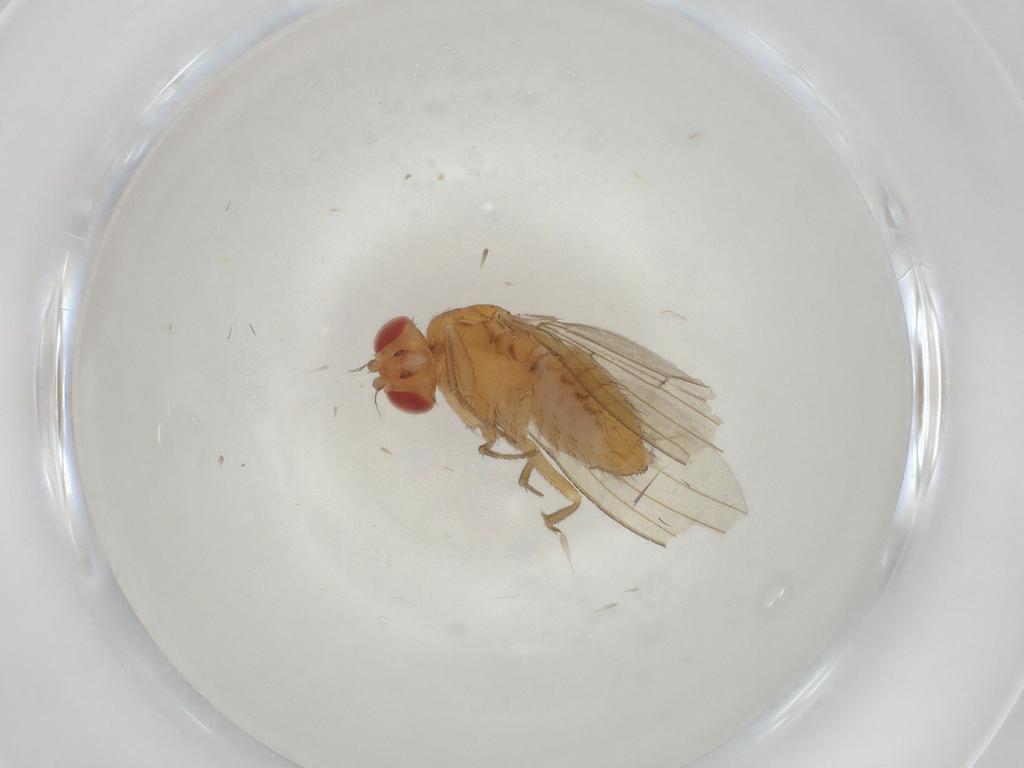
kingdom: Animalia
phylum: Arthropoda
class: Insecta
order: Diptera
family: Drosophilidae
